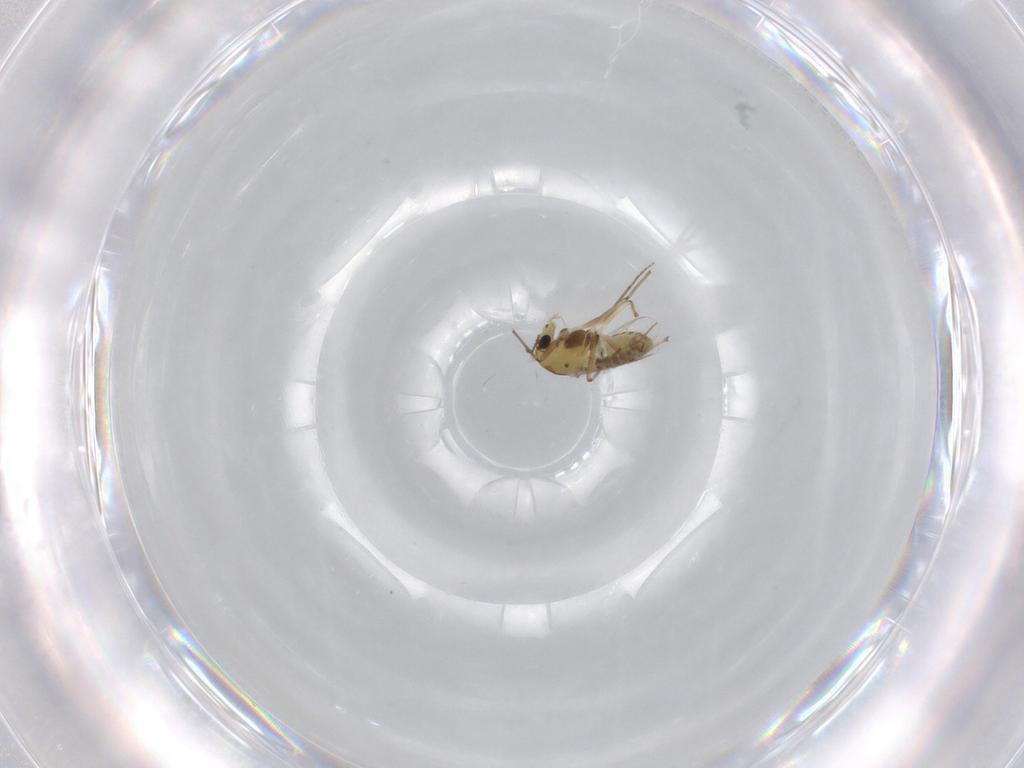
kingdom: Animalia
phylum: Arthropoda
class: Insecta
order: Diptera
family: Chironomidae
